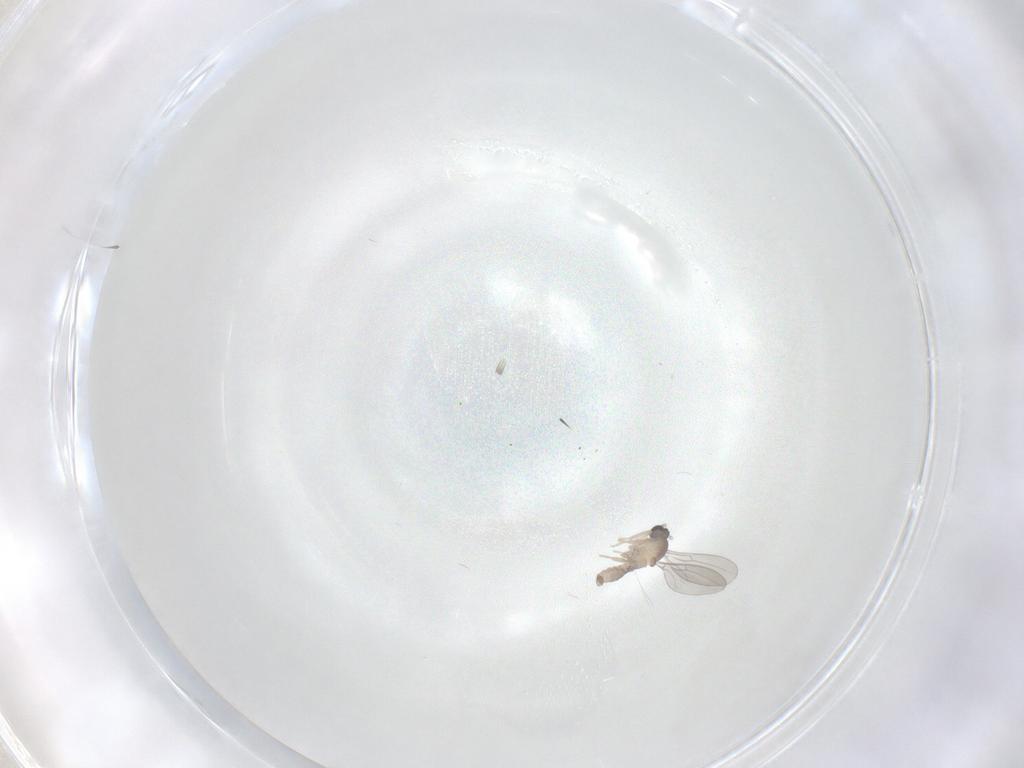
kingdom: Animalia
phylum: Arthropoda
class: Insecta
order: Diptera
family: Cecidomyiidae
